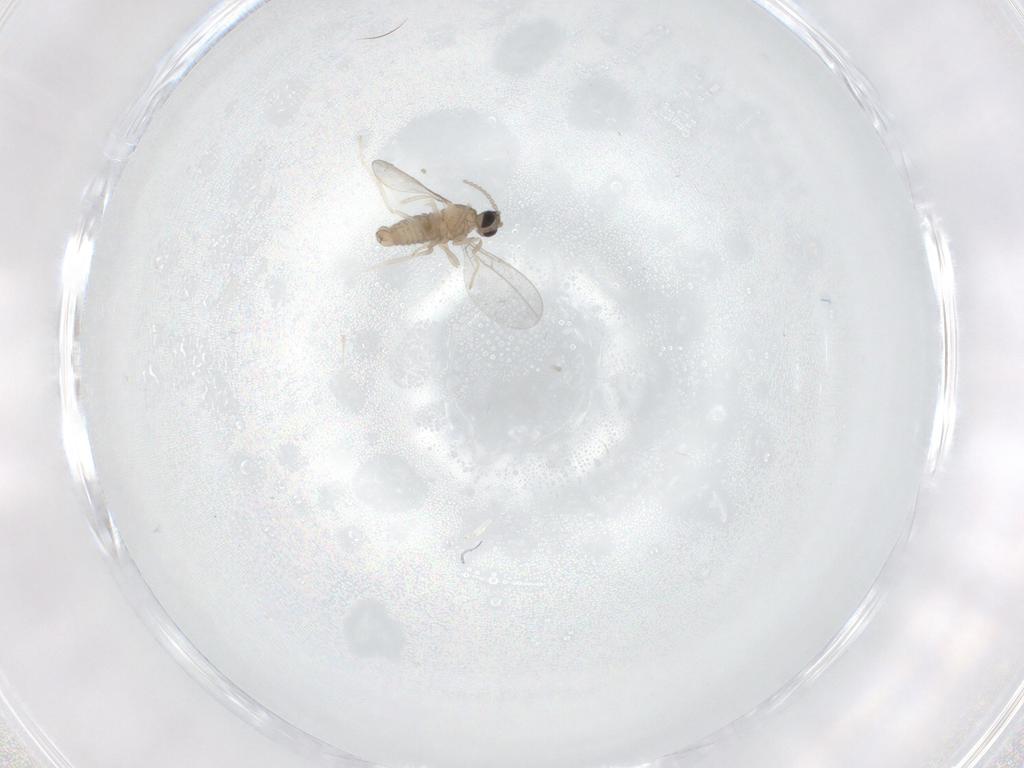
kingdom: Animalia
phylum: Arthropoda
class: Insecta
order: Diptera
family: Cecidomyiidae
